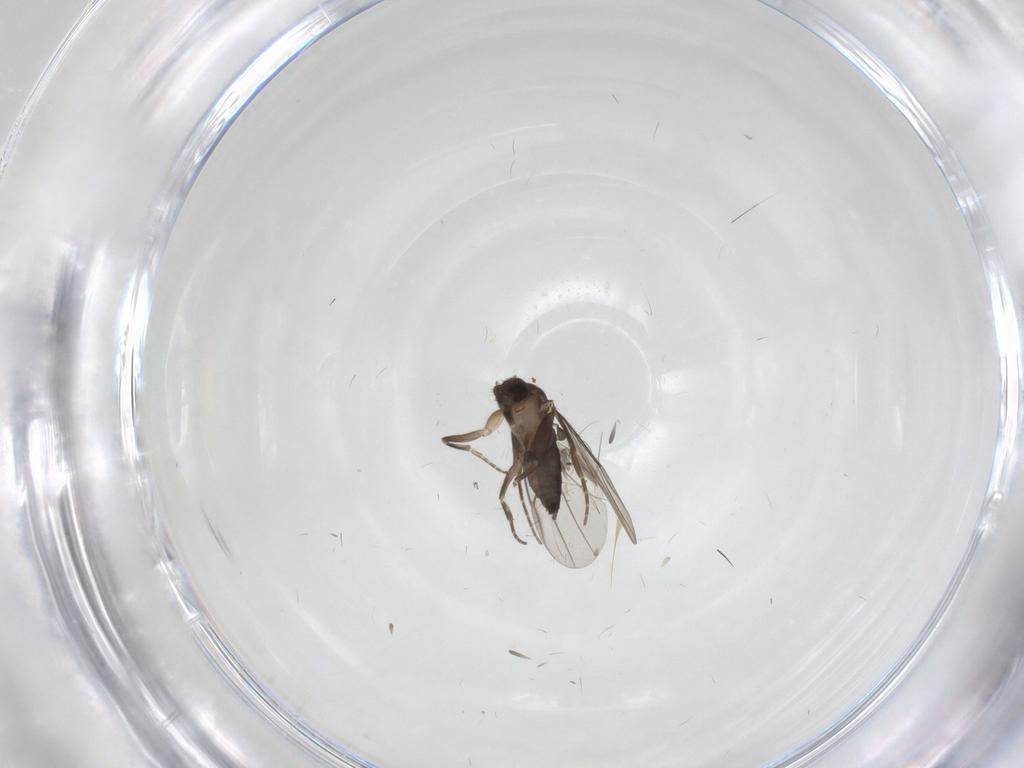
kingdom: Animalia
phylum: Arthropoda
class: Insecta
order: Diptera
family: Phoridae
